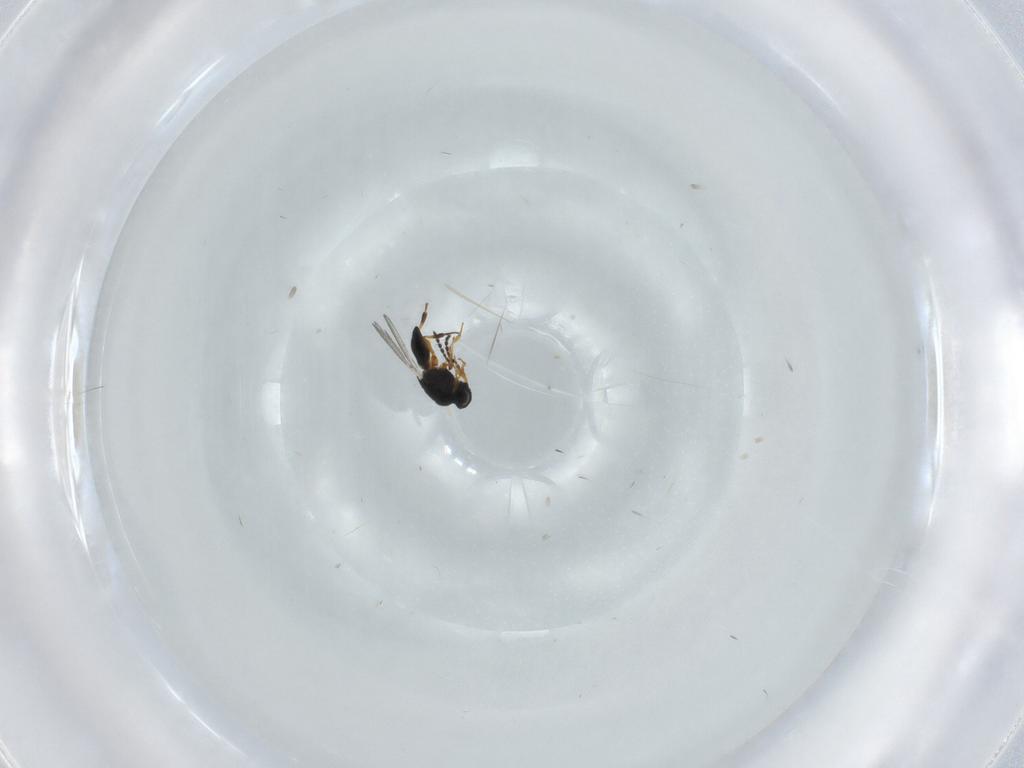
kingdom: Animalia
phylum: Arthropoda
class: Insecta
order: Hymenoptera
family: Platygastridae
